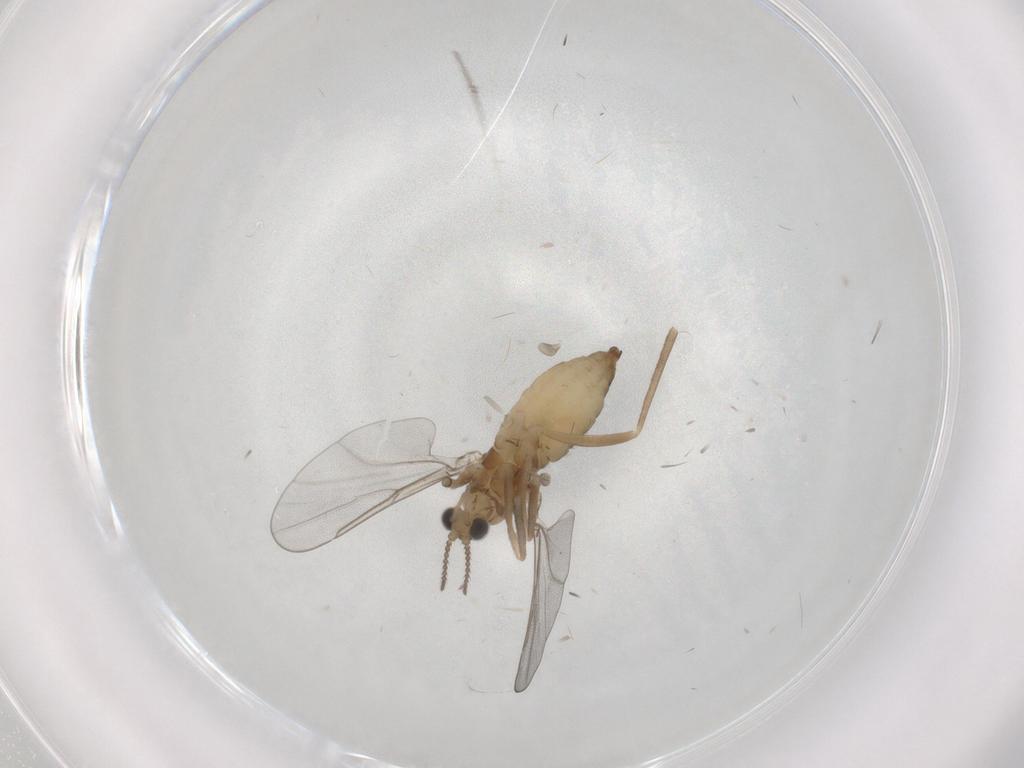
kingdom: Animalia
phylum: Arthropoda
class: Insecta
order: Diptera
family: Cecidomyiidae
